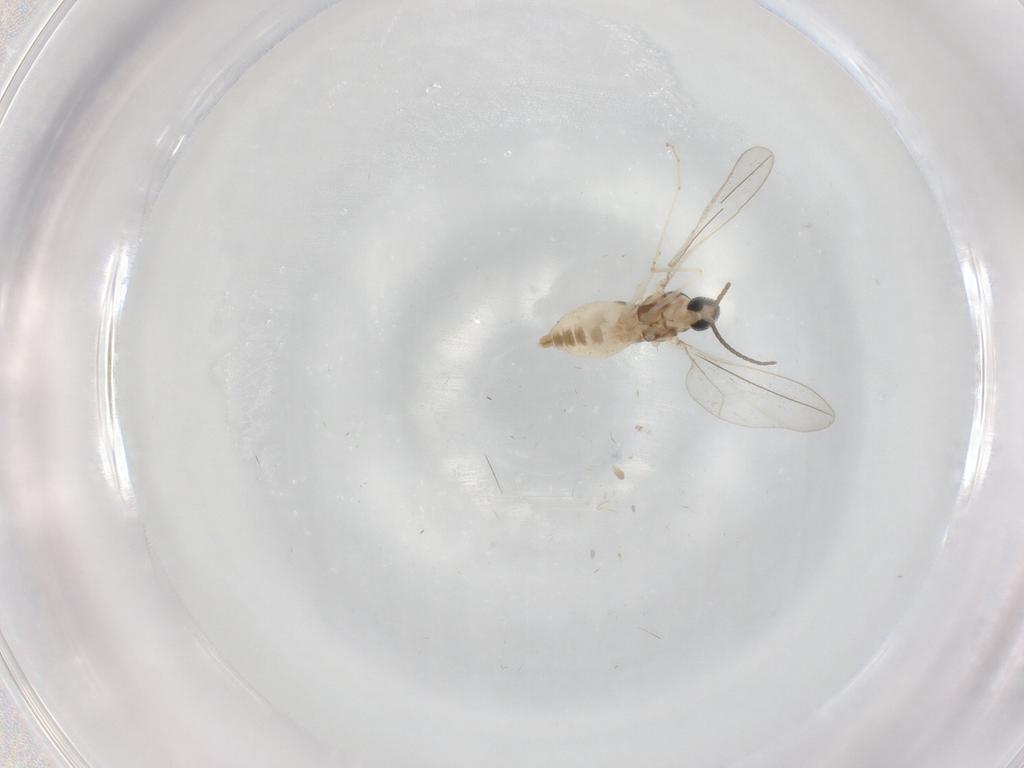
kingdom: Animalia
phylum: Arthropoda
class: Insecta
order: Diptera
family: Cecidomyiidae
